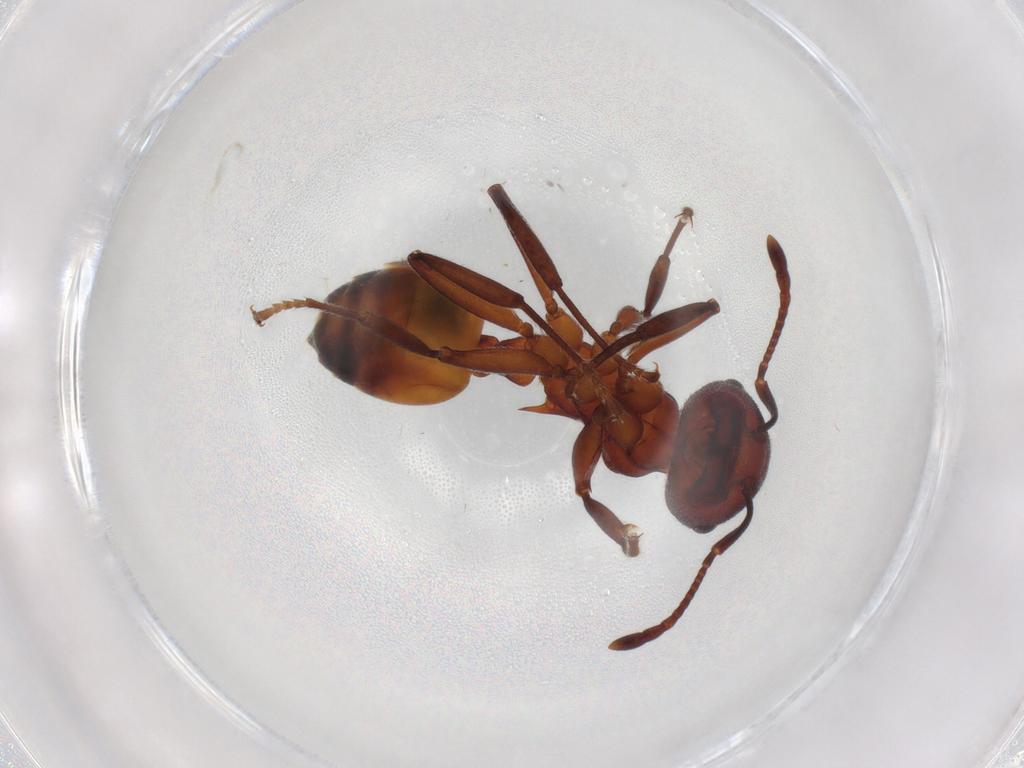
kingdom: Animalia
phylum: Arthropoda
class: Insecta
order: Hymenoptera
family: Formicidae
